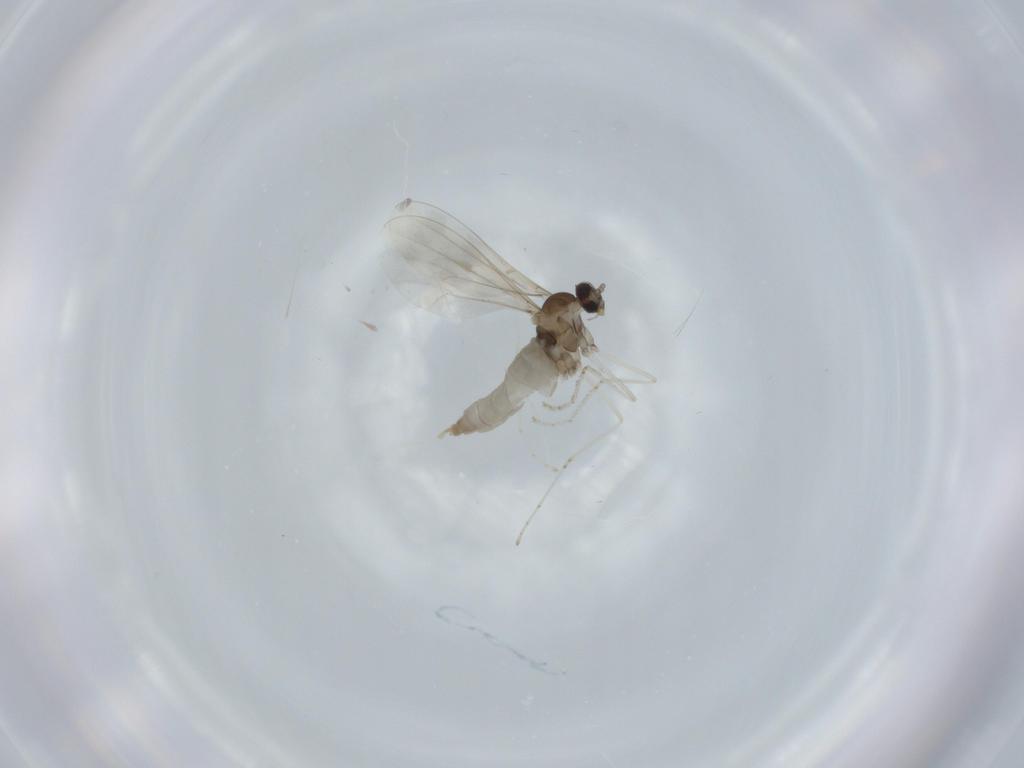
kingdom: Animalia
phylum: Arthropoda
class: Insecta
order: Diptera
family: Cecidomyiidae
